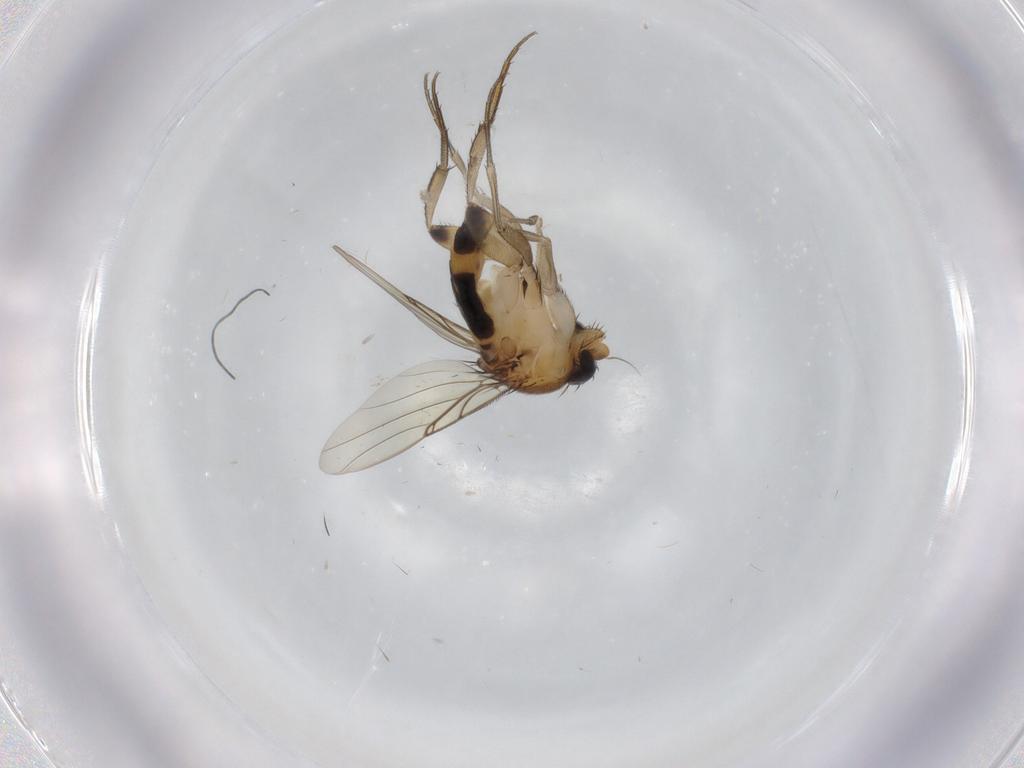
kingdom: Animalia
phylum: Arthropoda
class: Insecta
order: Diptera
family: Phoridae
